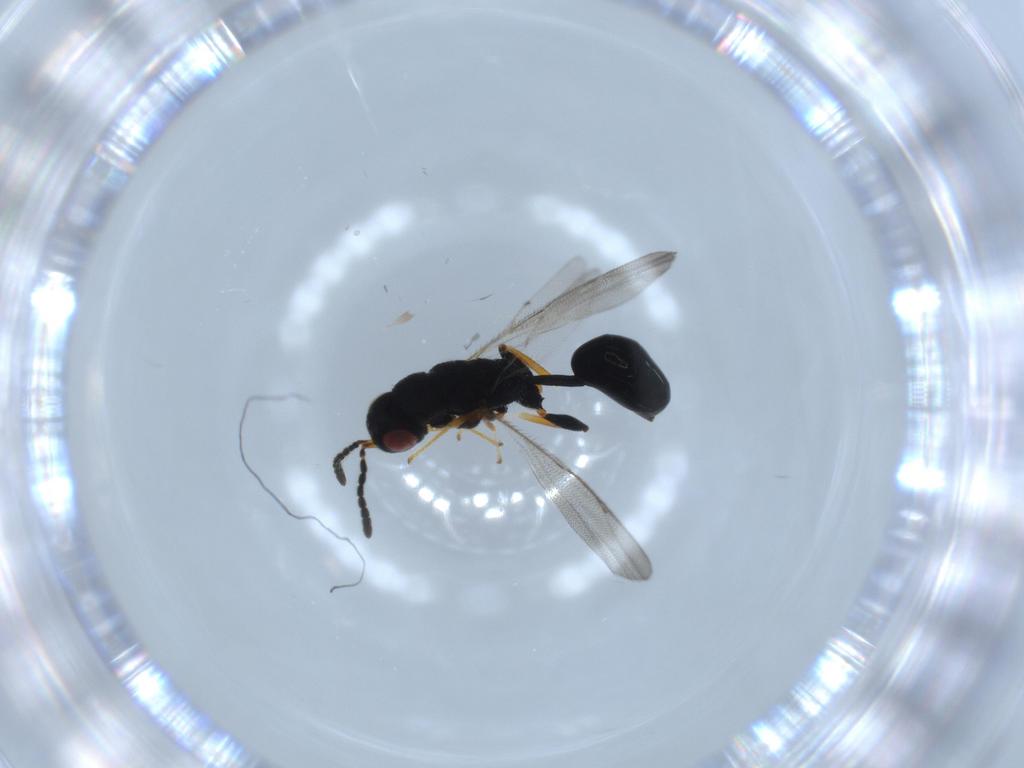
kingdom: Animalia
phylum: Arthropoda
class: Insecta
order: Hymenoptera
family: Eurytomidae
